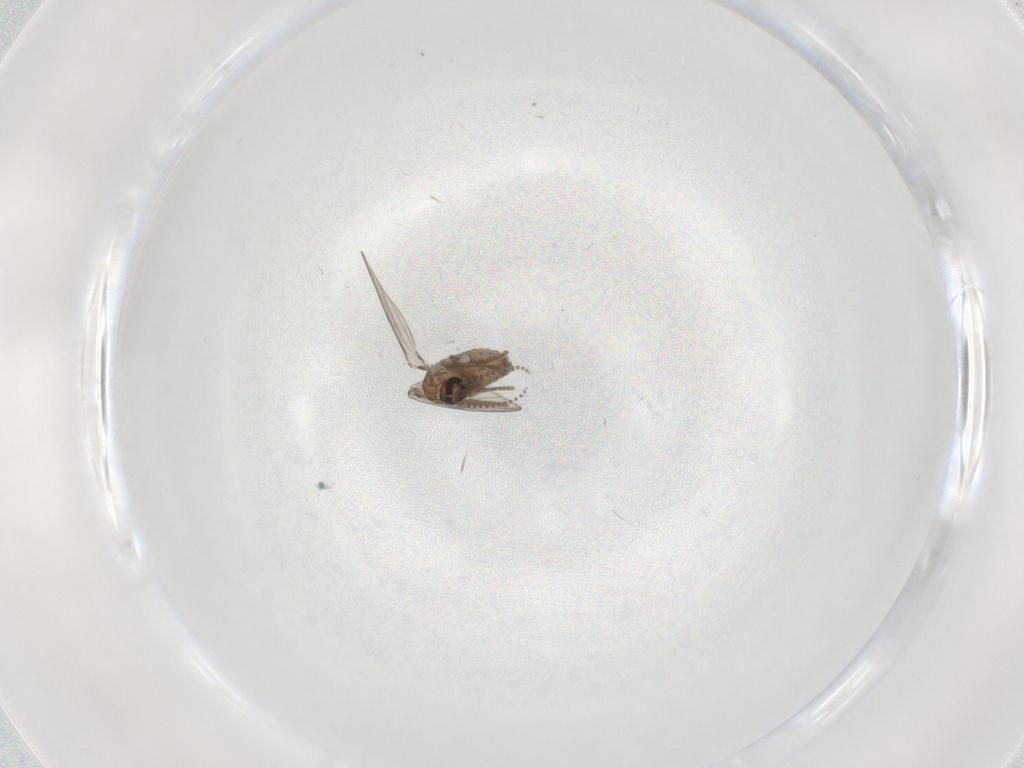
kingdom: Animalia
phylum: Arthropoda
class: Insecta
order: Diptera
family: Psychodidae
